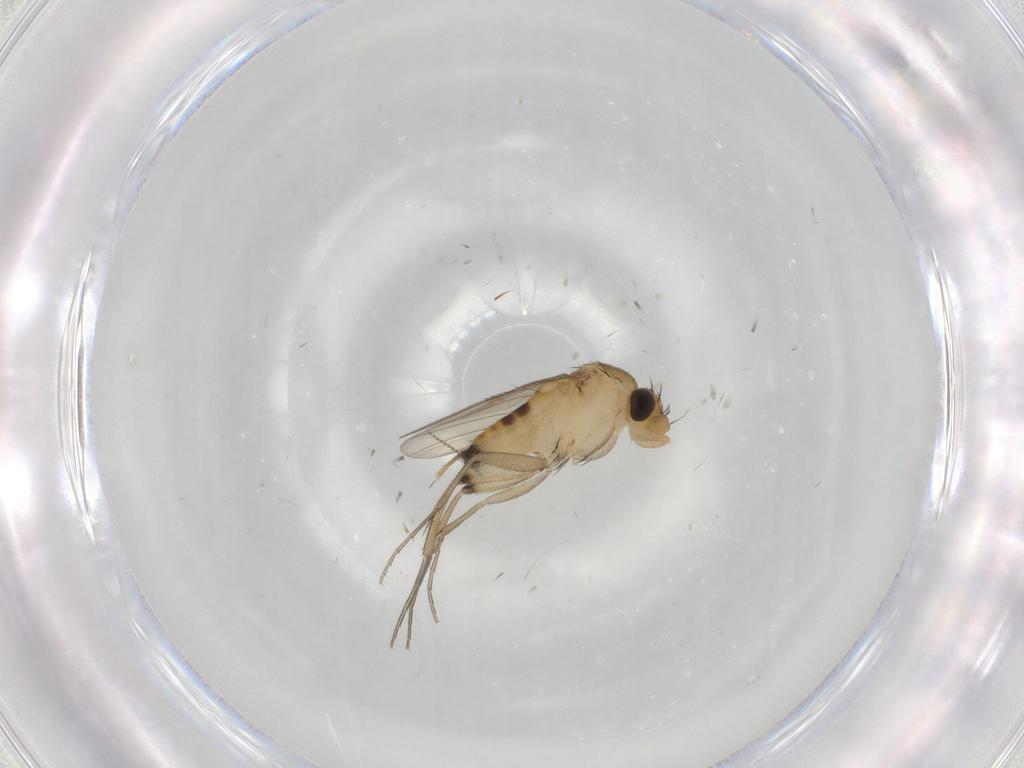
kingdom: Animalia
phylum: Arthropoda
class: Insecta
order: Diptera
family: Phoridae
